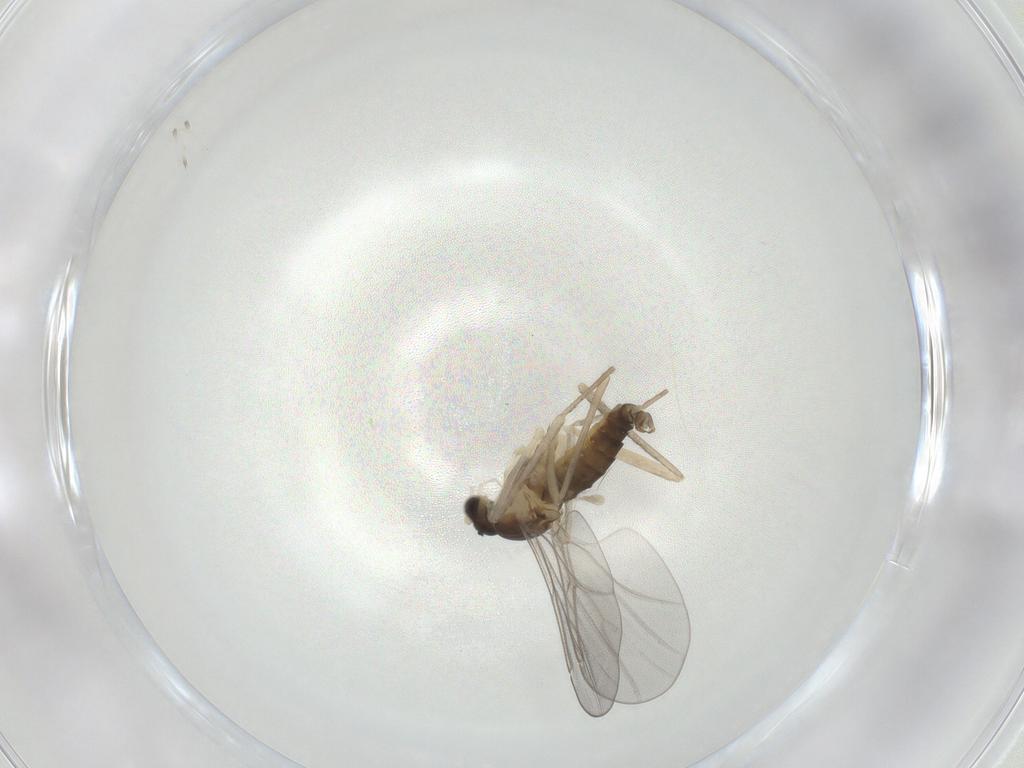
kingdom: Animalia
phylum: Arthropoda
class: Insecta
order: Diptera
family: Cecidomyiidae
